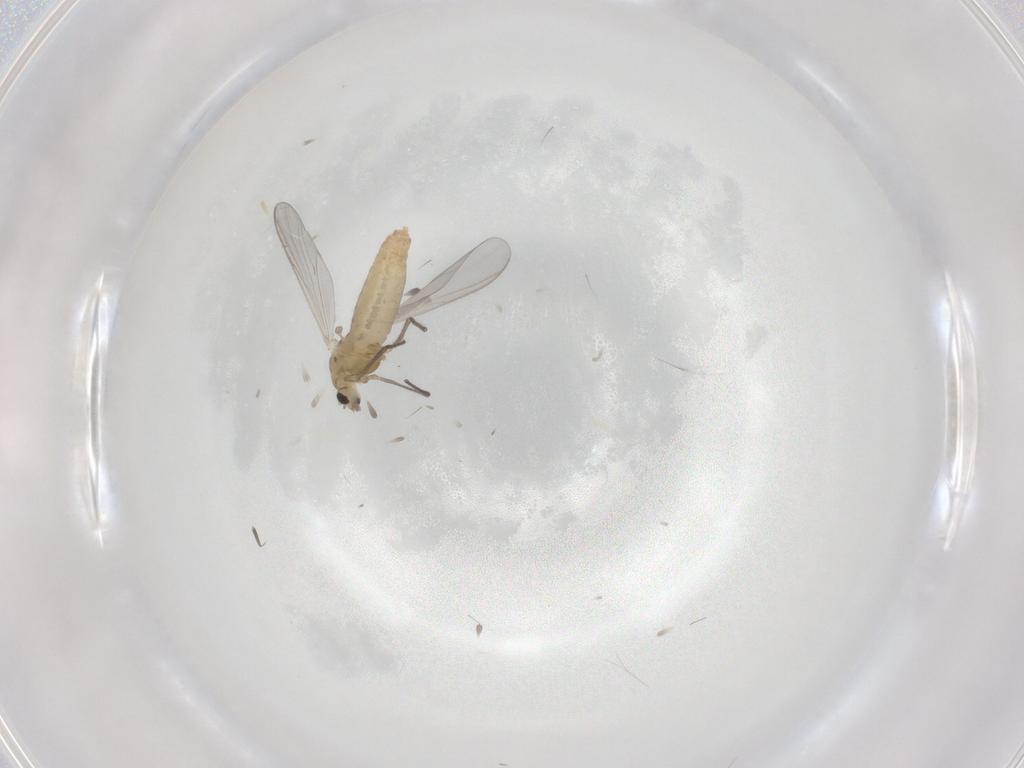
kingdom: Animalia
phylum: Arthropoda
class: Insecta
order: Diptera
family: Chironomidae
